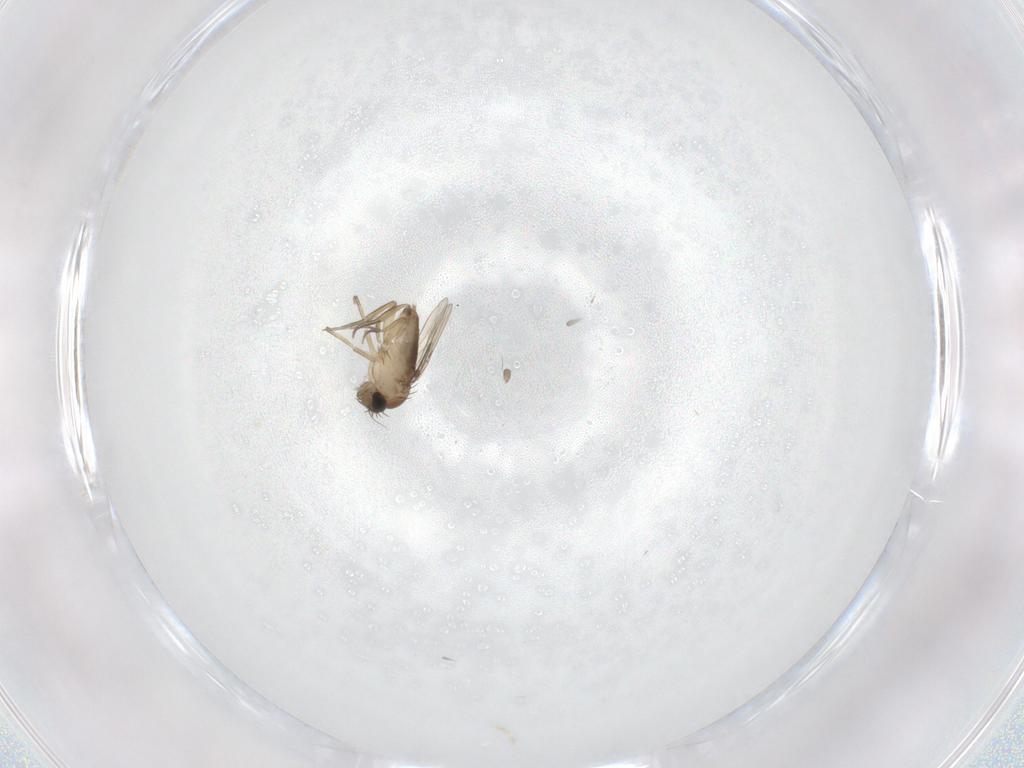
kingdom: Animalia
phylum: Arthropoda
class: Insecta
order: Diptera
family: Phoridae
